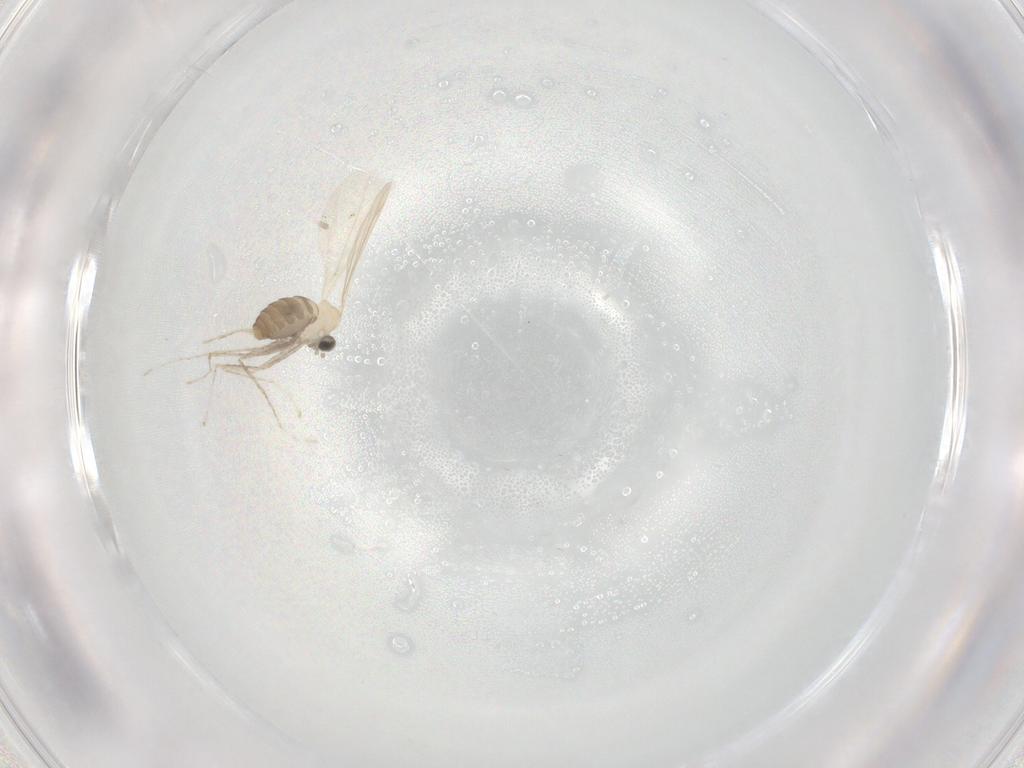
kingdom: Animalia
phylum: Arthropoda
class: Insecta
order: Diptera
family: Cecidomyiidae
